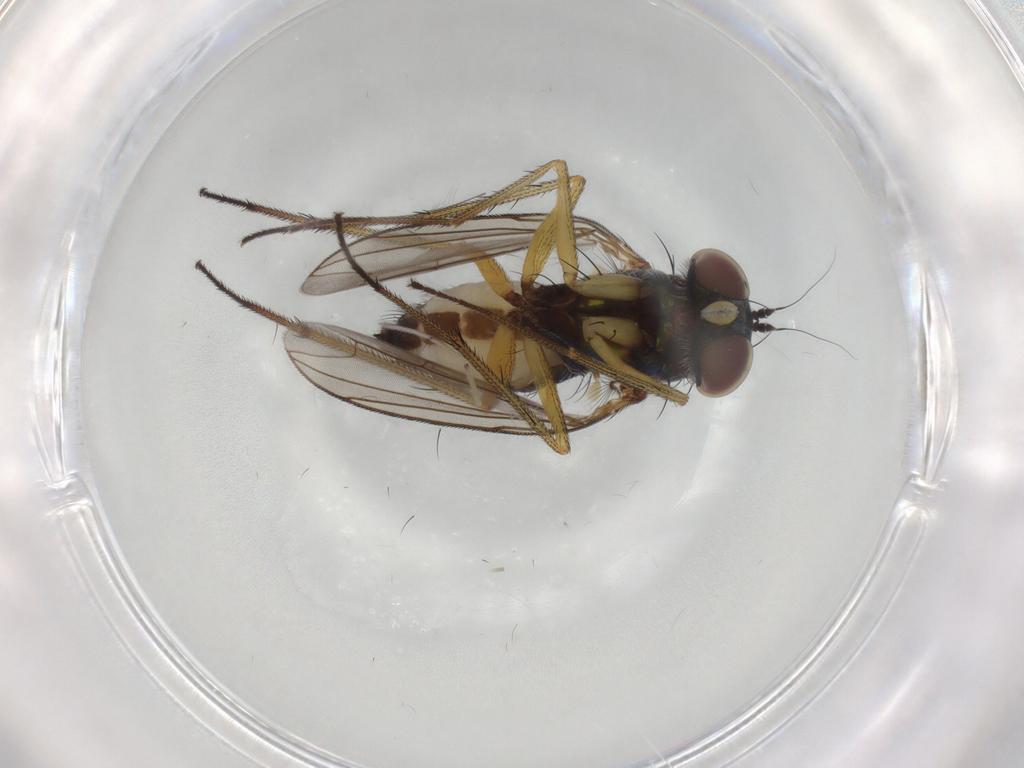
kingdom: Animalia
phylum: Arthropoda
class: Insecta
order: Diptera
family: Dolichopodidae
